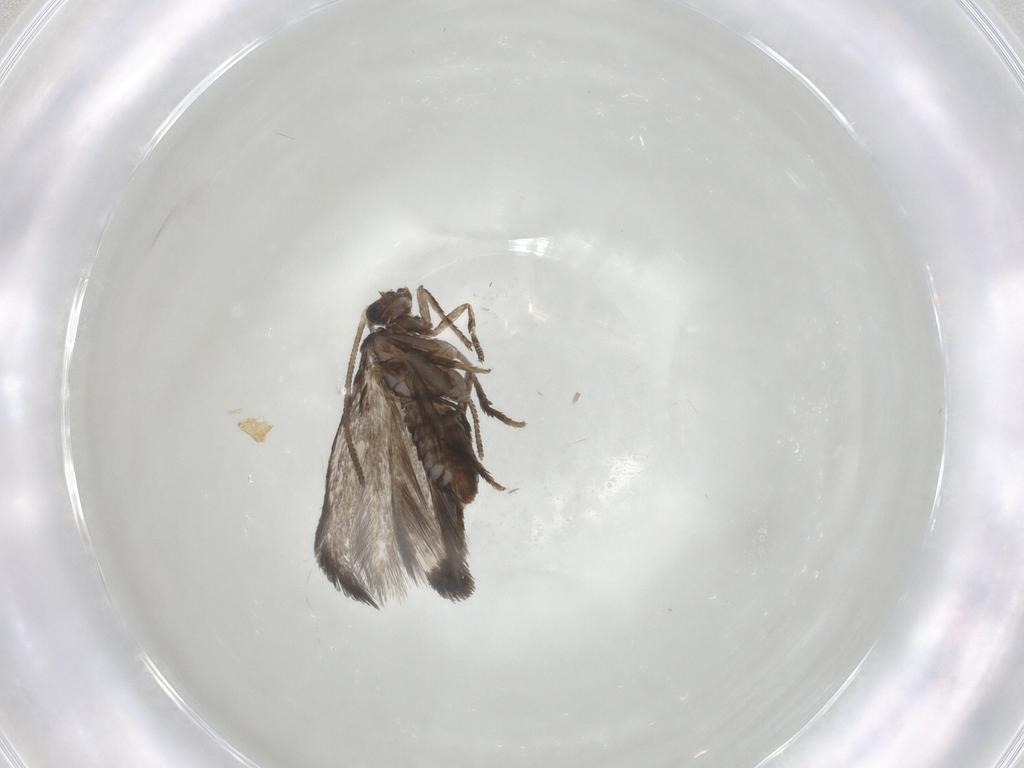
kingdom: Animalia
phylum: Arthropoda
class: Insecta
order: Lepidoptera
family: Nepticulidae
